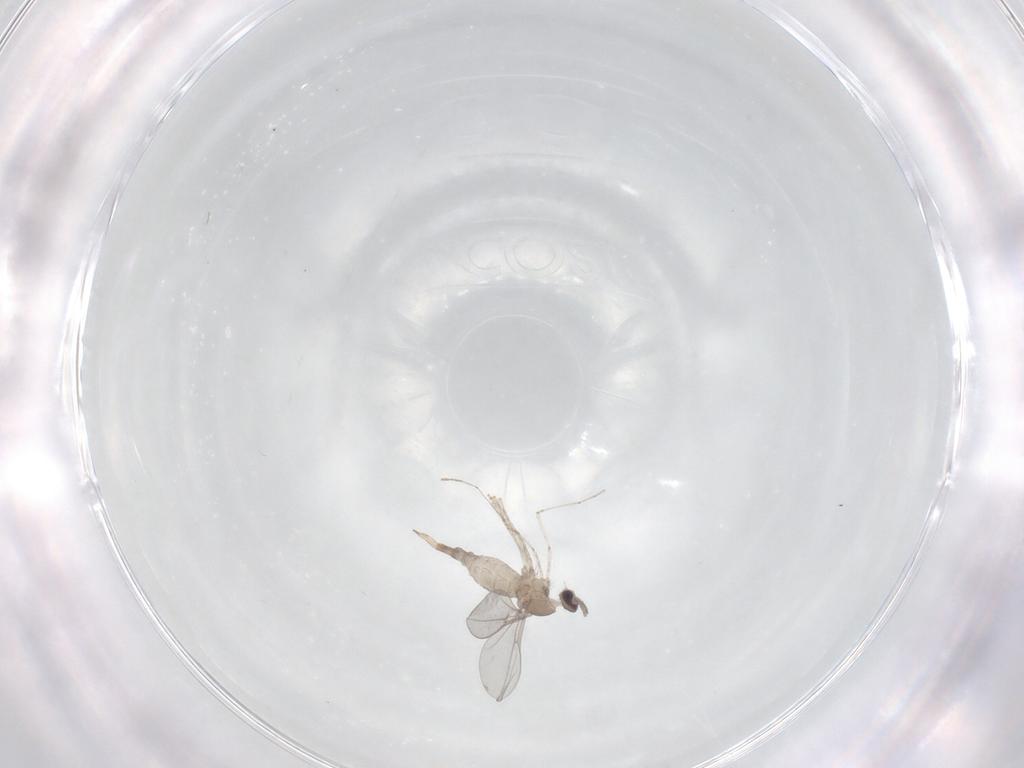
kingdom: Animalia
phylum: Arthropoda
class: Insecta
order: Diptera
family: Cecidomyiidae
